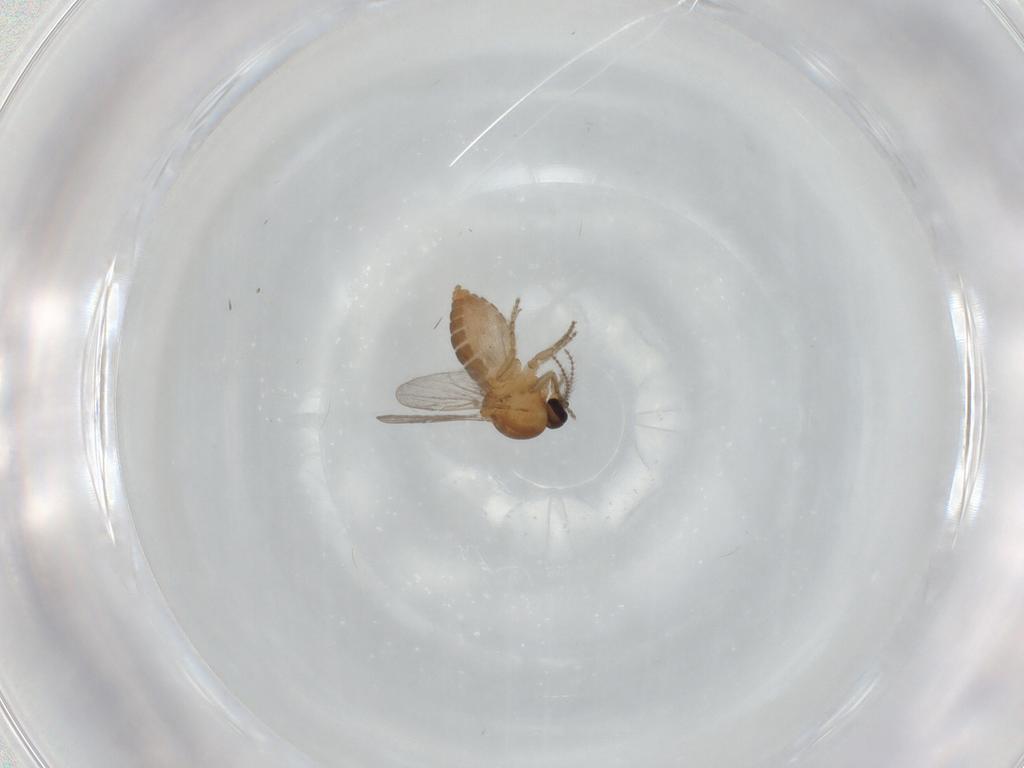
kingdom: Animalia
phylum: Arthropoda
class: Insecta
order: Diptera
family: Ceratopogonidae
